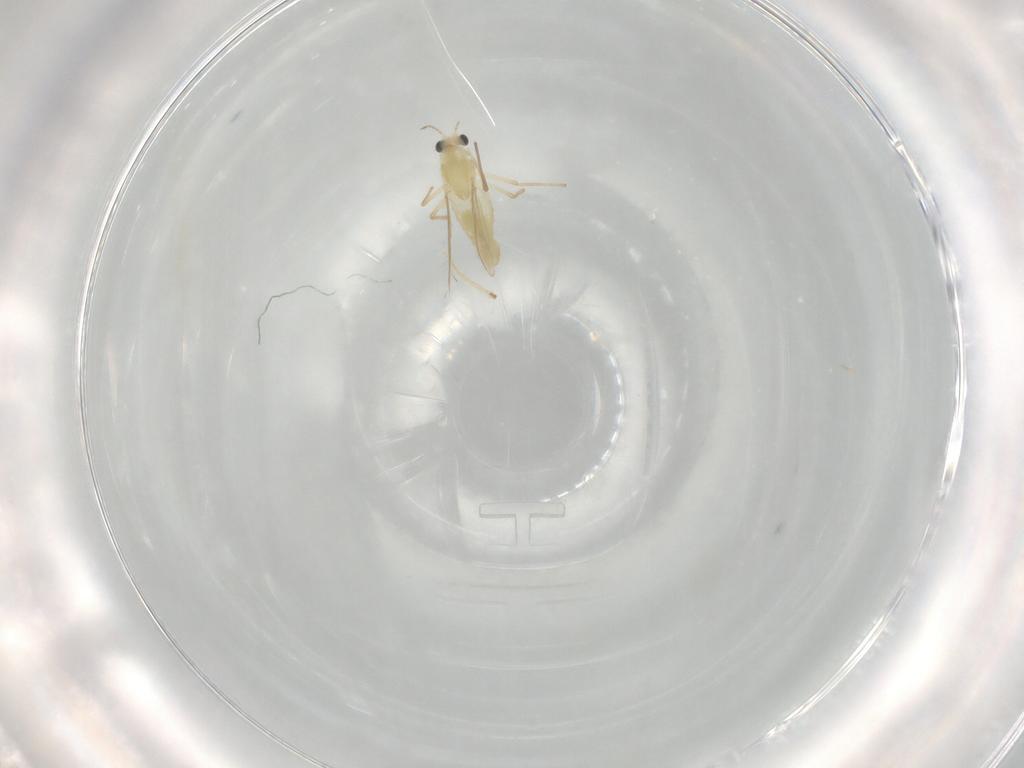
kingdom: Animalia
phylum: Arthropoda
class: Insecta
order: Diptera
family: Chironomidae
